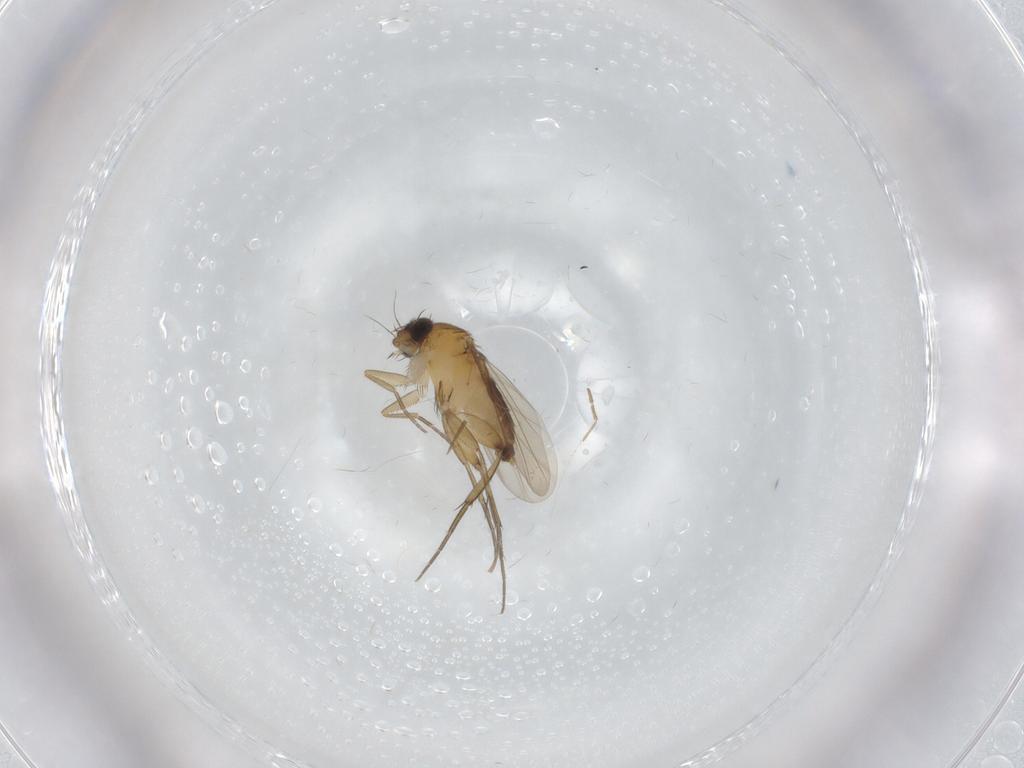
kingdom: Animalia
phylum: Arthropoda
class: Insecta
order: Diptera
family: Phoridae
